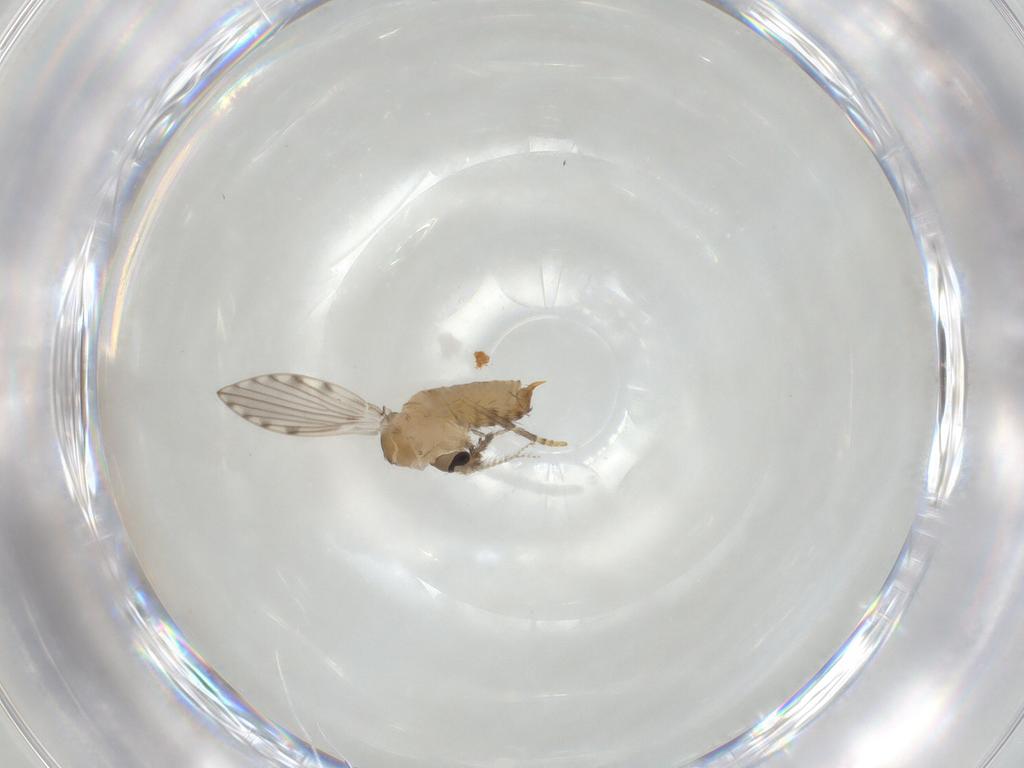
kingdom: Animalia
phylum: Arthropoda
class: Insecta
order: Diptera
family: Psychodidae
